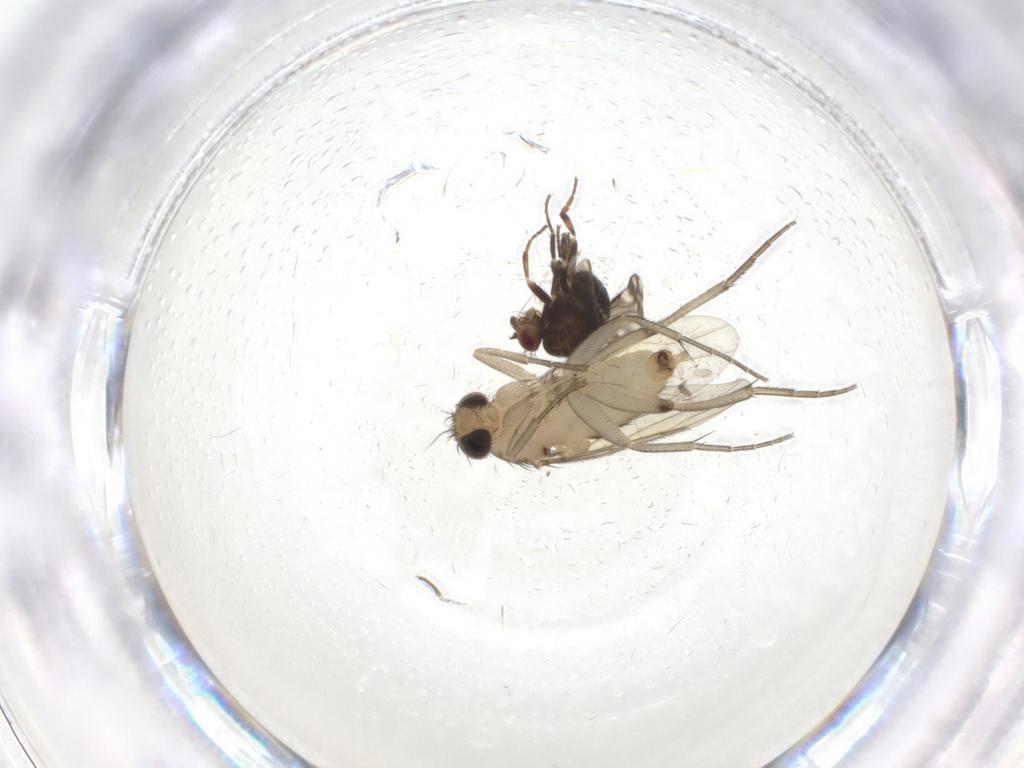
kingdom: Animalia
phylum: Arthropoda
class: Insecta
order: Diptera
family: Sphaeroceridae
